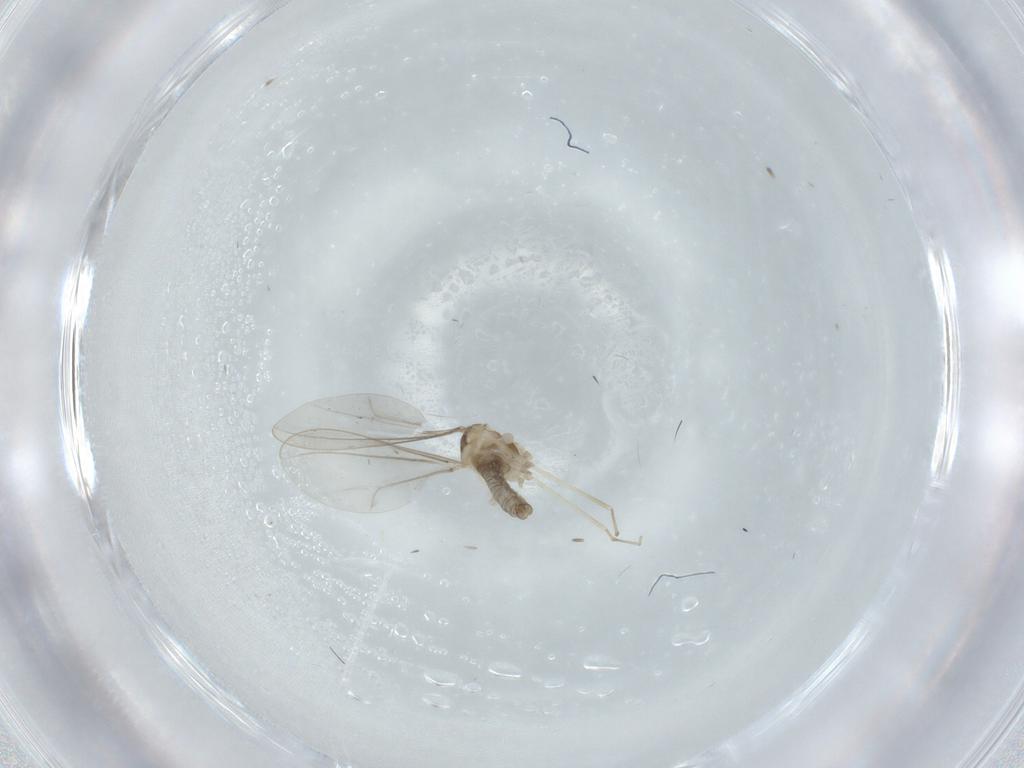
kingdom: Animalia
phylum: Arthropoda
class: Insecta
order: Diptera
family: Cecidomyiidae
